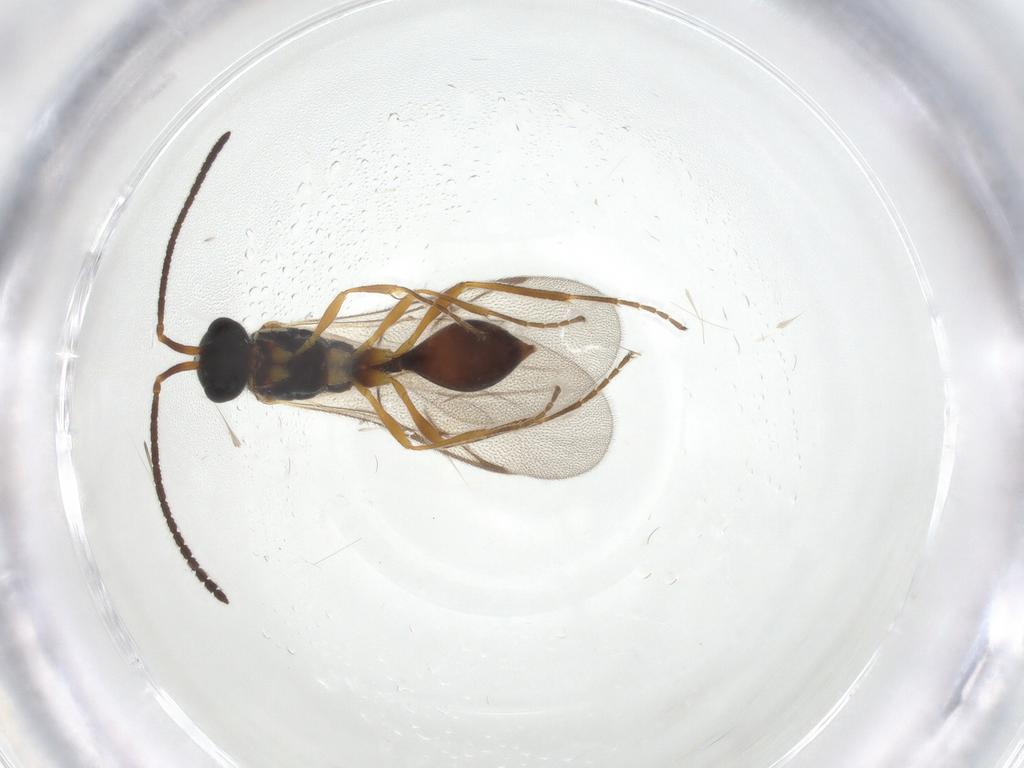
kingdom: Animalia
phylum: Arthropoda
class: Insecta
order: Hymenoptera
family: Diapriidae
